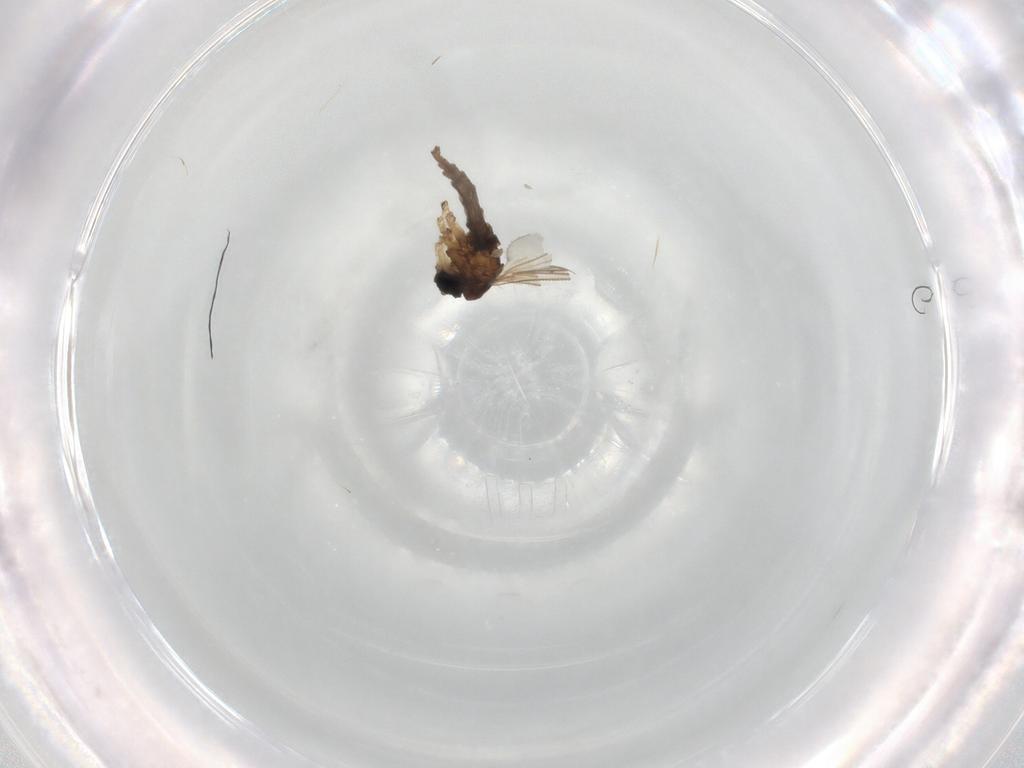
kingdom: Animalia
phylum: Arthropoda
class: Insecta
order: Diptera
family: Sciaridae
